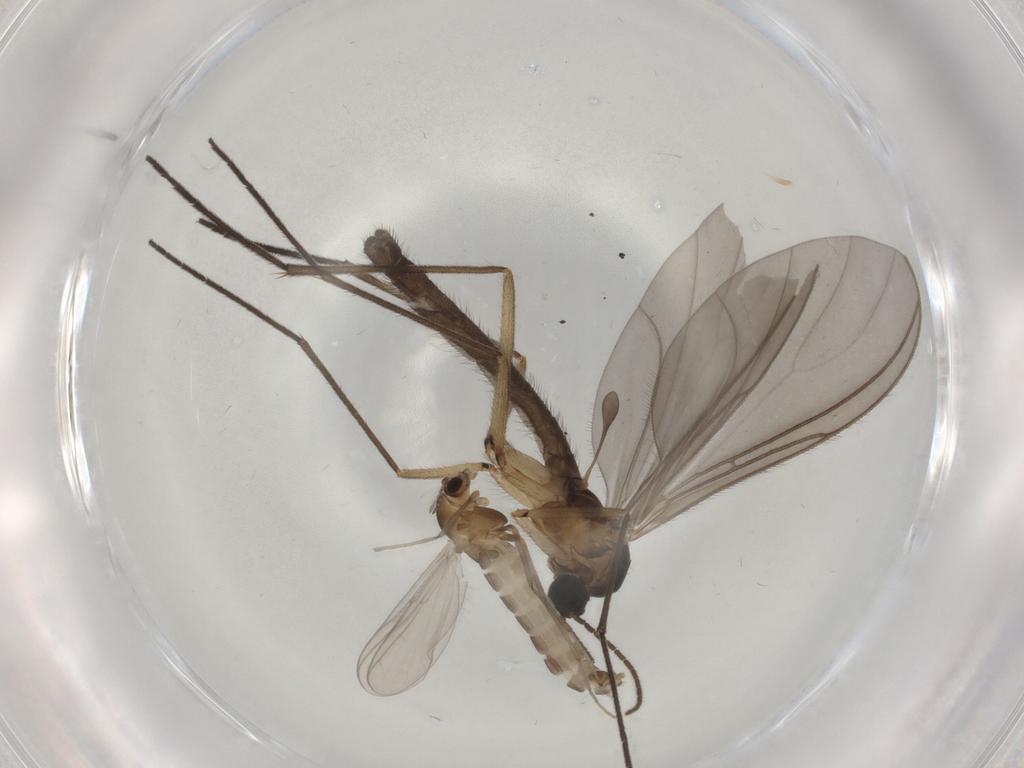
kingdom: Animalia
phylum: Arthropoda
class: Insecta
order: Diptera
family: Sciaridae
